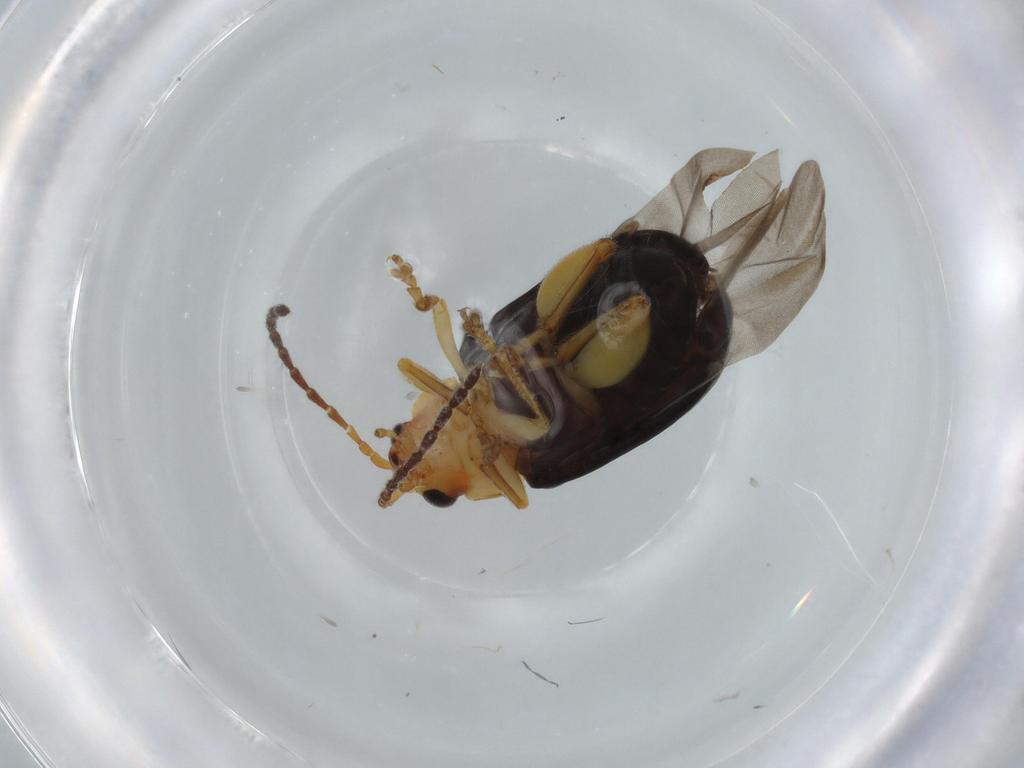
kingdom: Animalia
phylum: Arthropoda
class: Insecta
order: Coleoptera
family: Chrysomelidae
